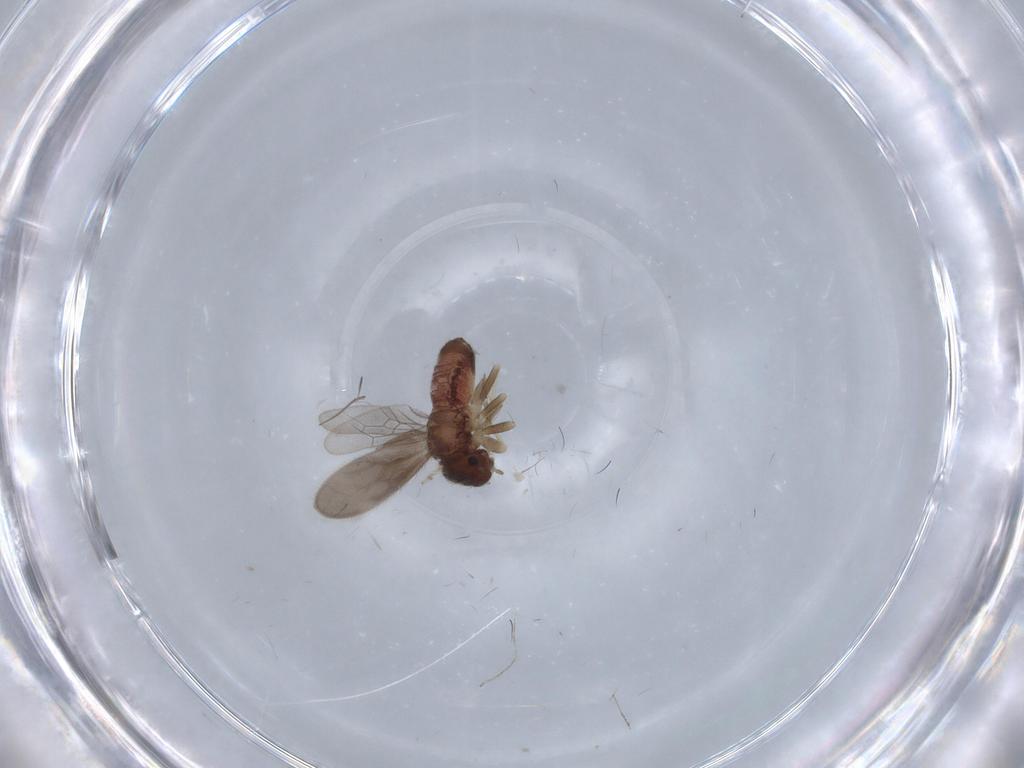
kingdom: Animalia
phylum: Arthropoda
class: Insecta
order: Psocodea
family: Archipsocidae
